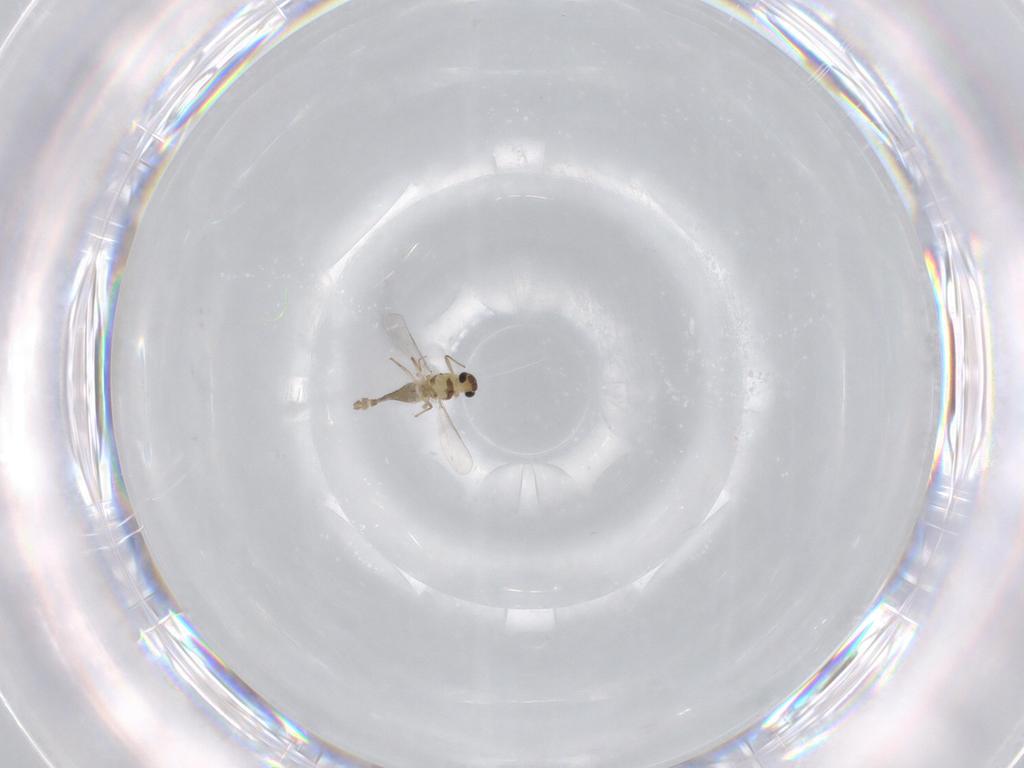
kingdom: Animalia
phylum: Arthropoda
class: Insecta
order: Diptera
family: Chironomidae
